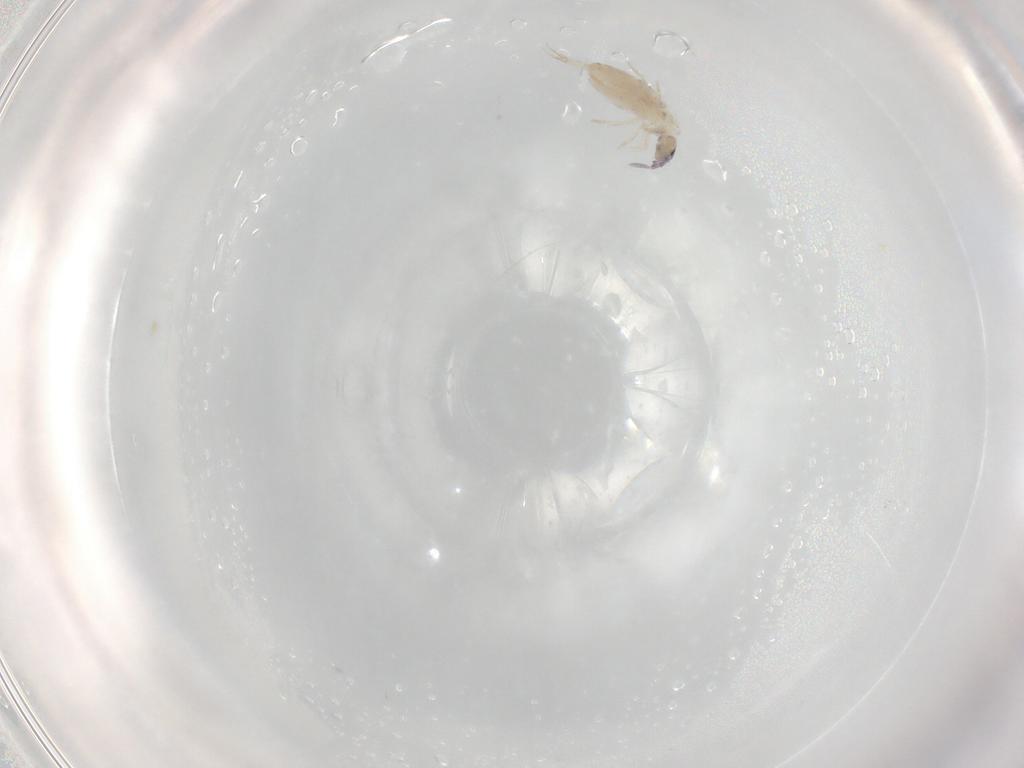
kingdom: Animalia
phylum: Arthropoda
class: Collembola
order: Entomobryomorpha
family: Entomobryidae
